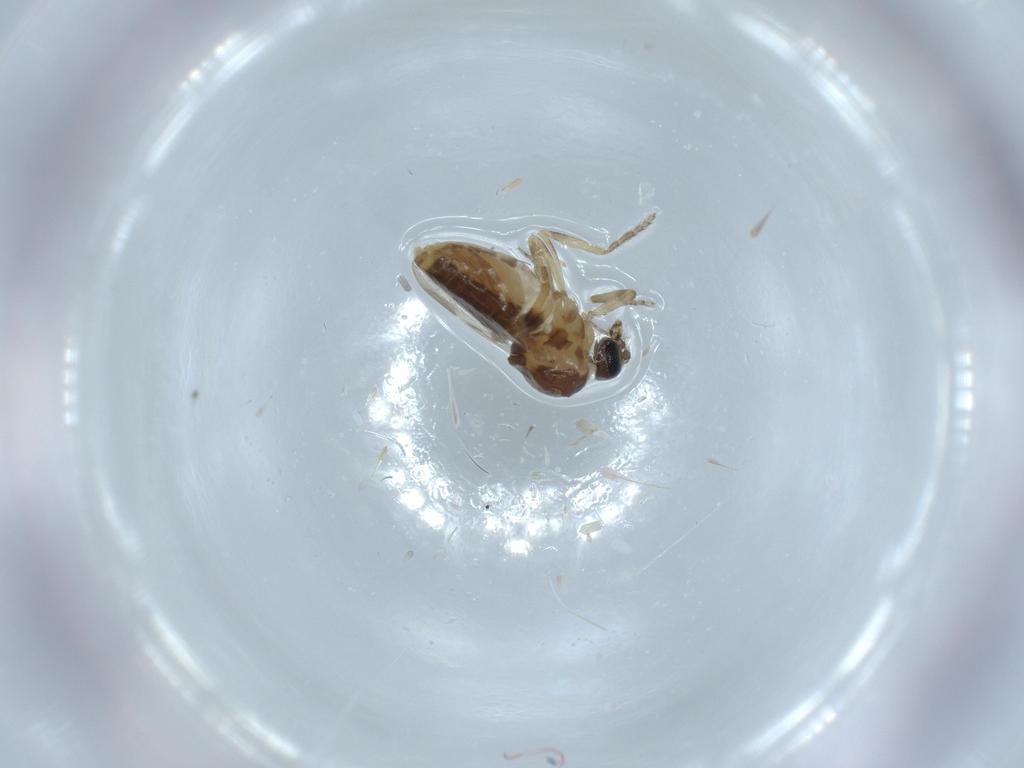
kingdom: Animalia
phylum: Arthropoda
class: Insecta
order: Diptera
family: Ceratopogonidae
